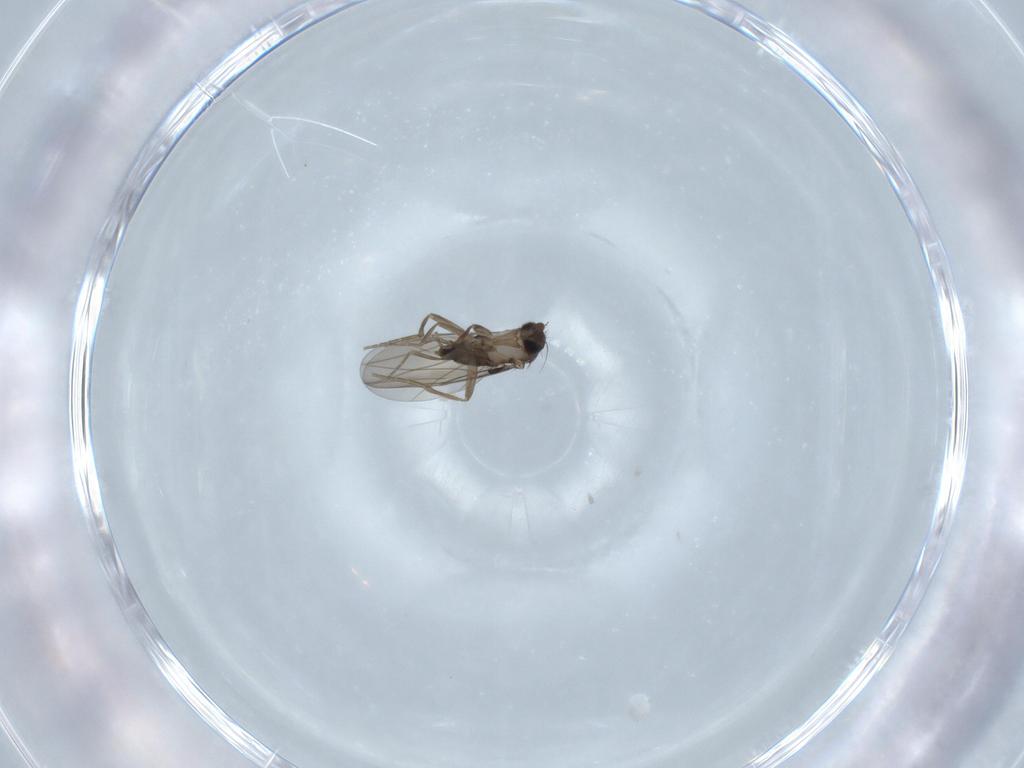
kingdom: Animalia
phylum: Arthropoda
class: Insecta
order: Diptera
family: Phoridae
